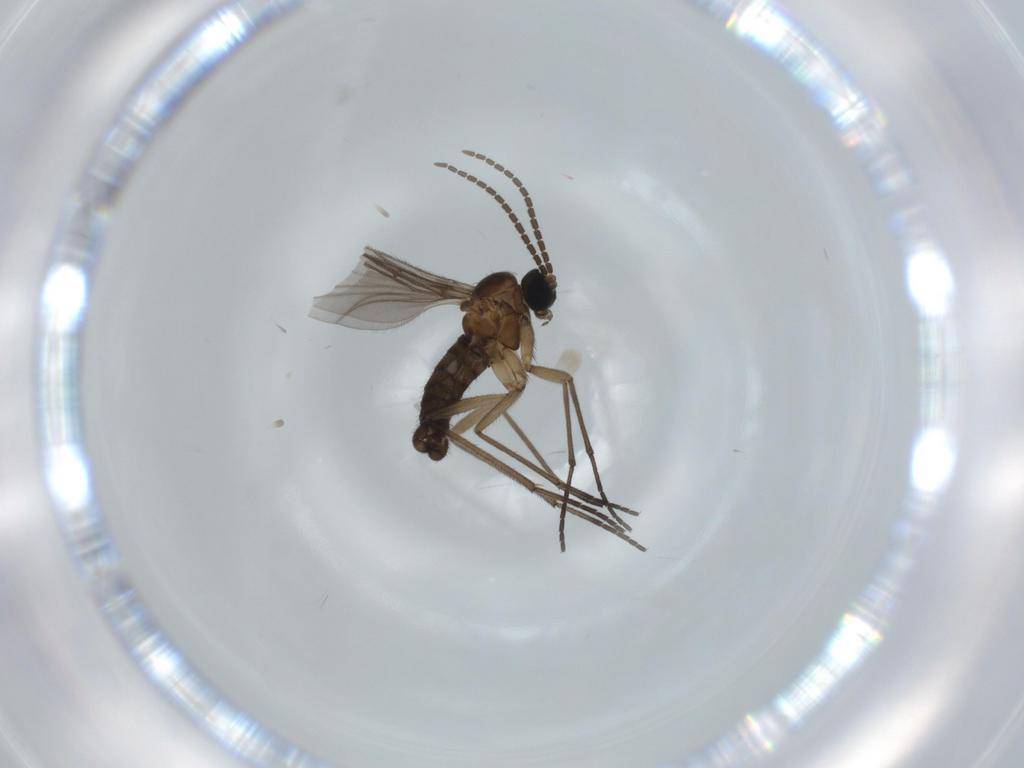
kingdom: Animalia
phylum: Arthropoda
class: Insecta
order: Diptera
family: Sciaridae
